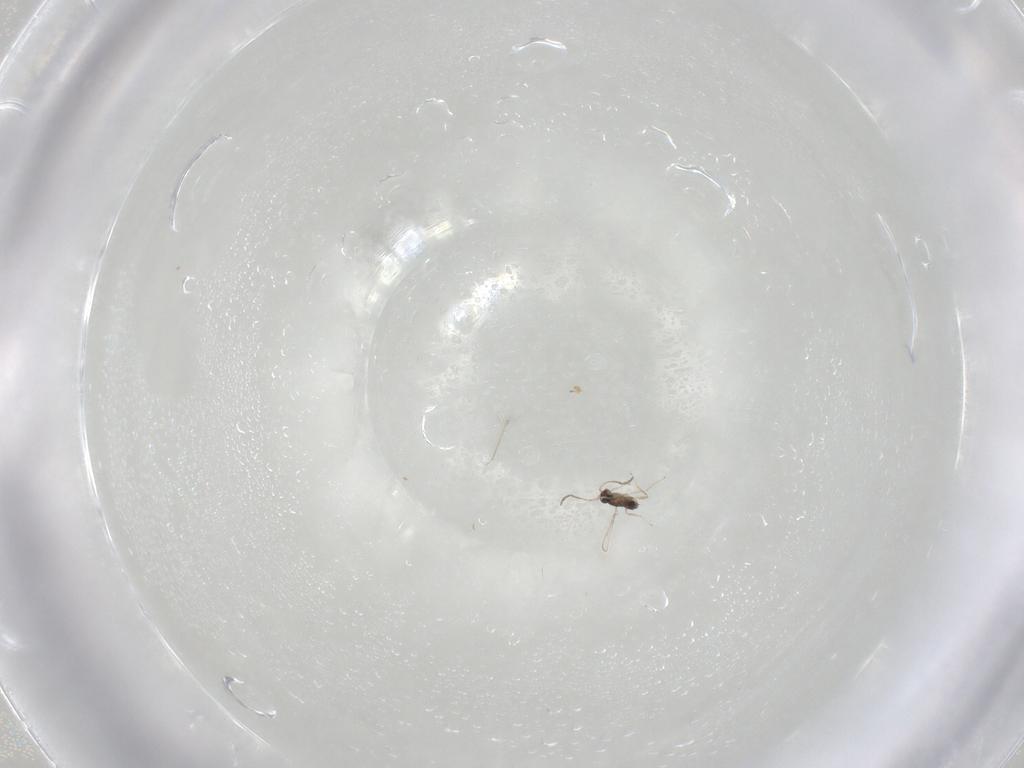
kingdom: Animalia
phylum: Arthropoda
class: Insecta
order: Hymenoptera
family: Mymaridae
